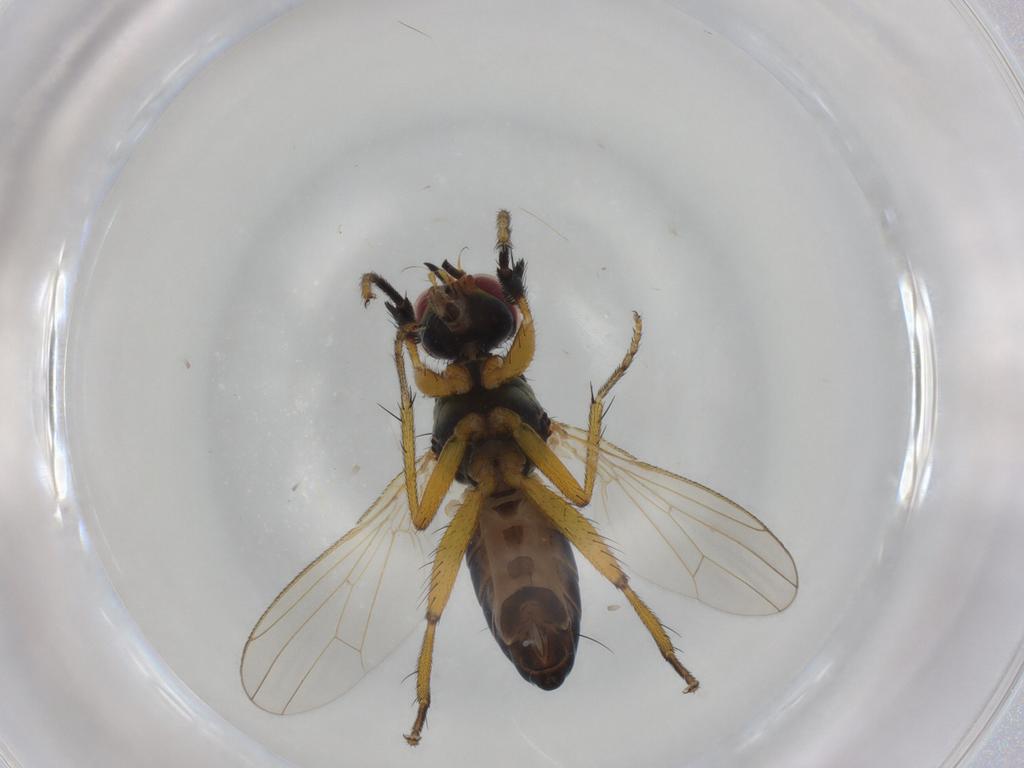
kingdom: Animalia
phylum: Arthropoda
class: Insecta
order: Diptera
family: Muscidae
